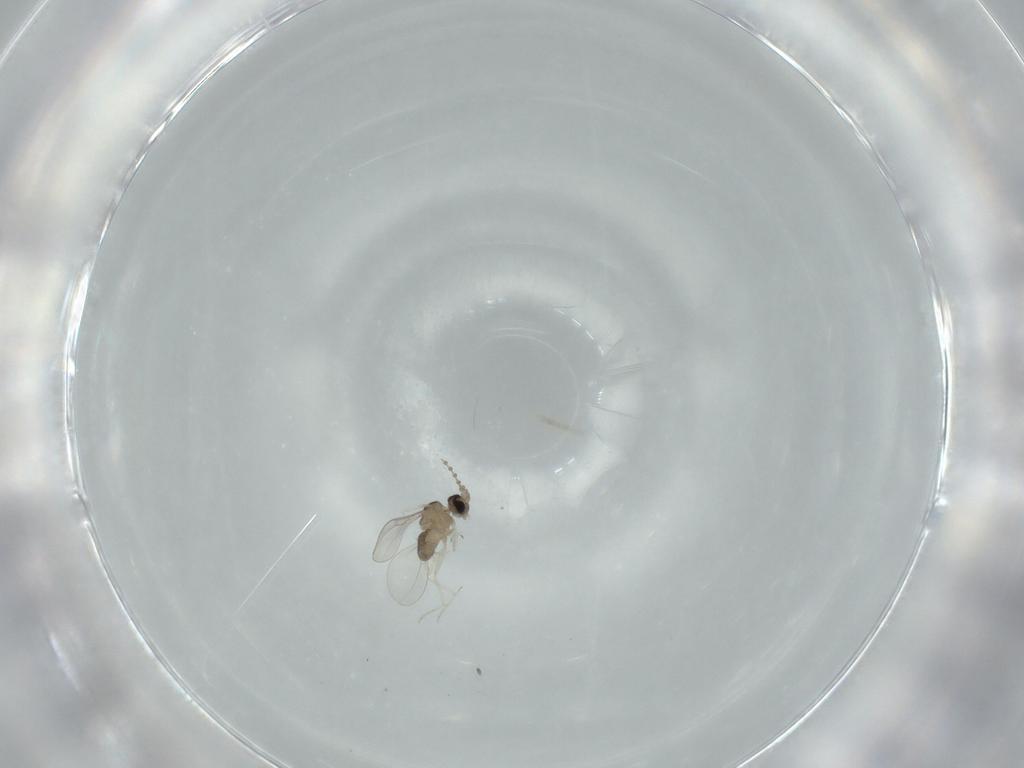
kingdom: Animalia
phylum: Arthropoda
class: Insecta
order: Diptera
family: Cecidomyiidae
